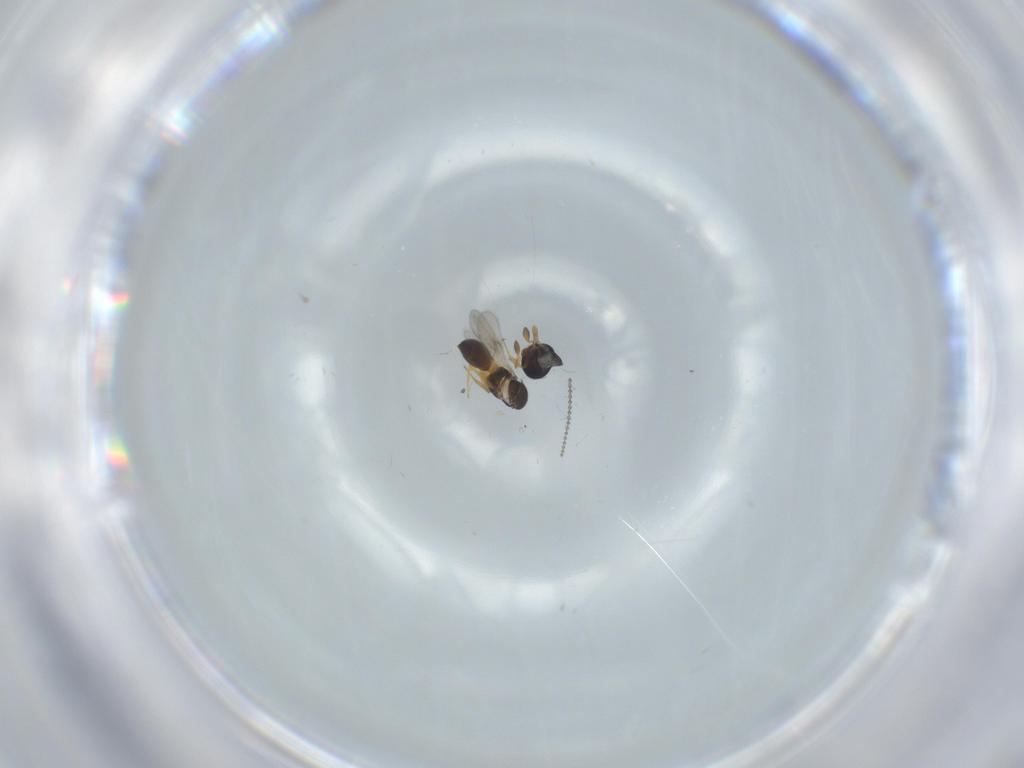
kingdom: Animalia
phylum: Arthropoda
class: Insecta
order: Hymenoptera
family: Scelionidae
